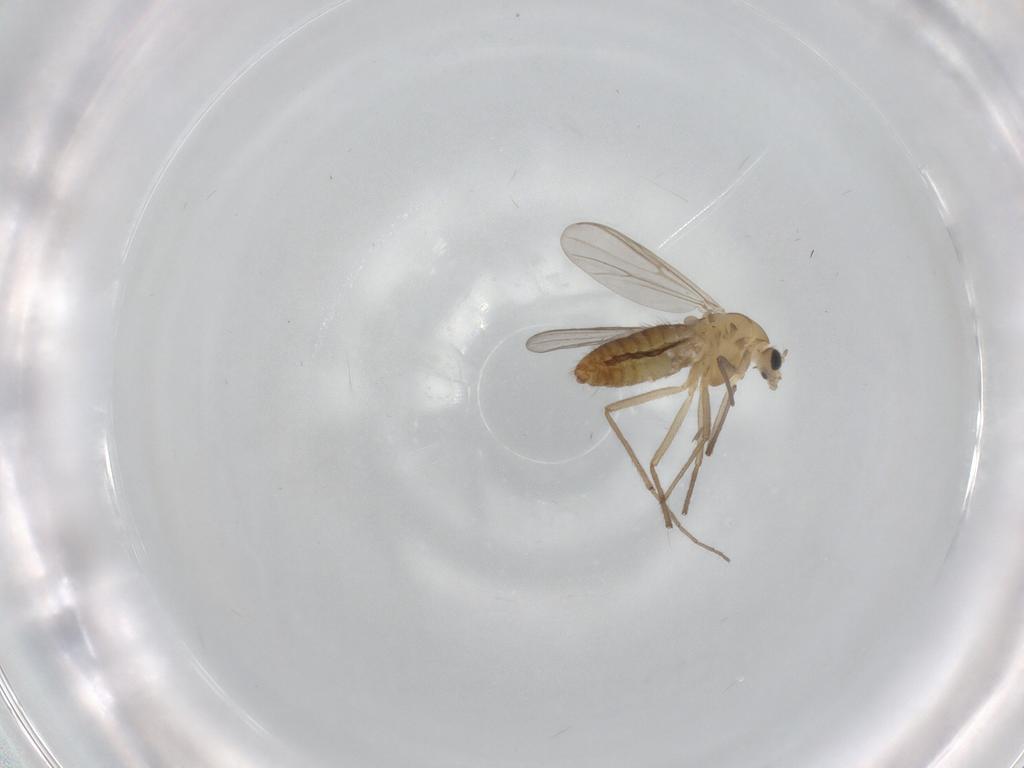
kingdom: Animalia
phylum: Arthropoda
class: Insecta
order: Diptera
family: Chironomidae
